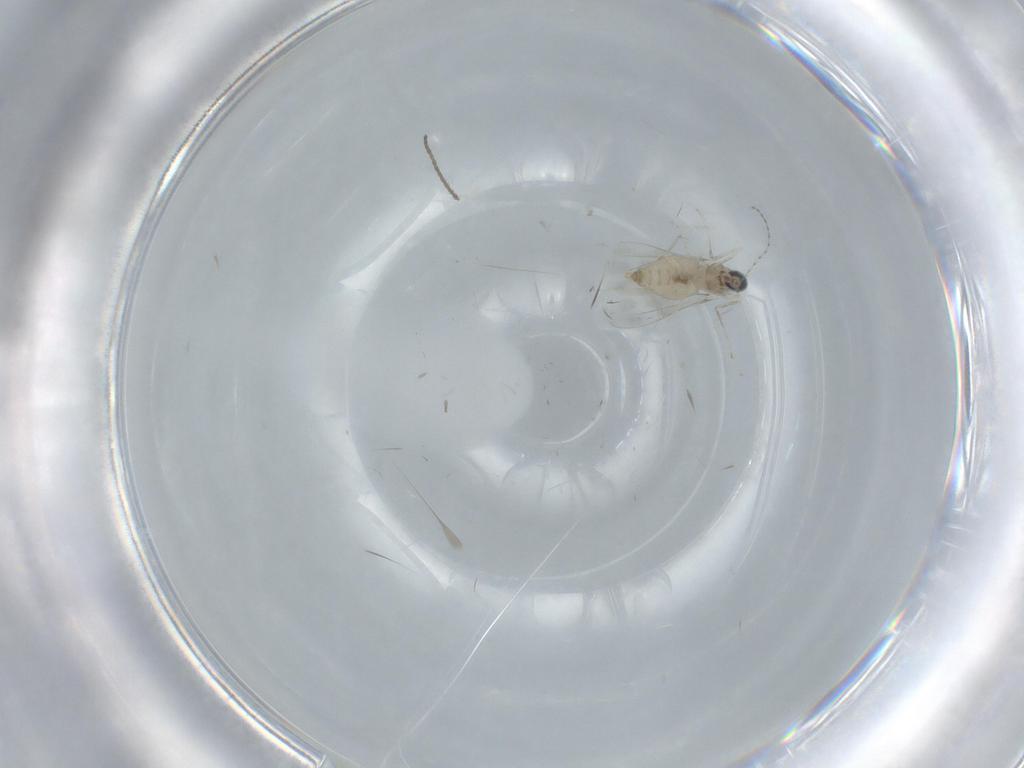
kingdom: Animalia
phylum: Arthropoda
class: Insecta
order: Diptera
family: Cecidomyiidae
